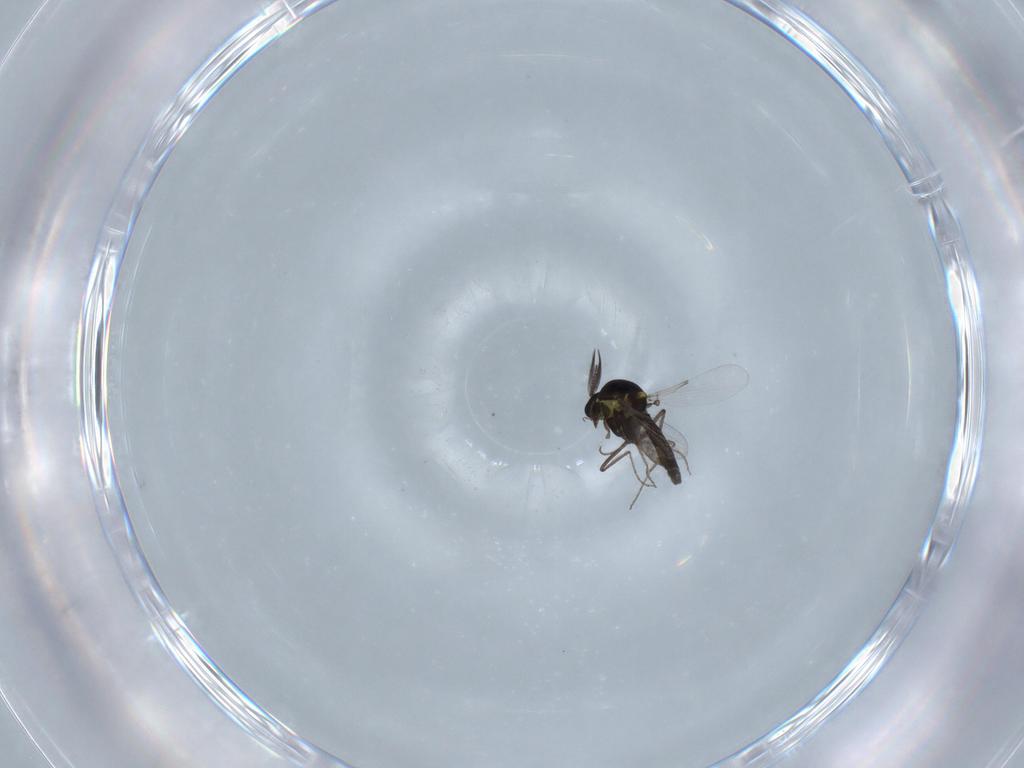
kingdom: Animalia
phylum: Arthropoda
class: Insecta
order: Diptera
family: Ceratopogonidae
